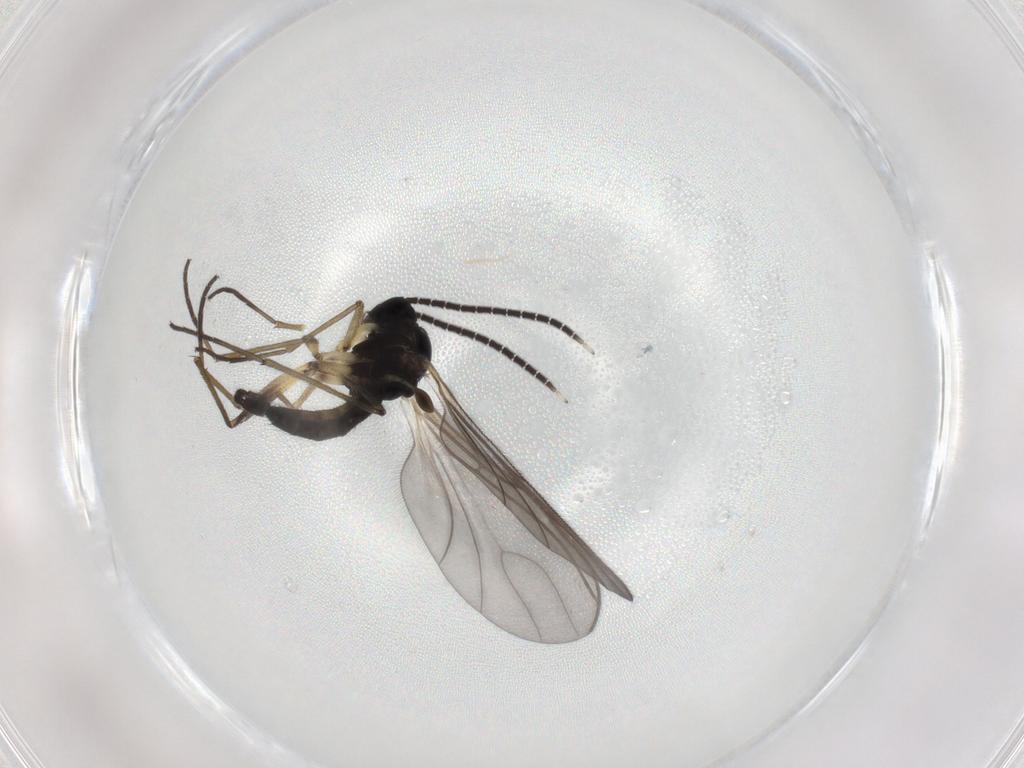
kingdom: Animalia
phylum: Arthropoda
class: Insecta
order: Diptera
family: Sciaridae
